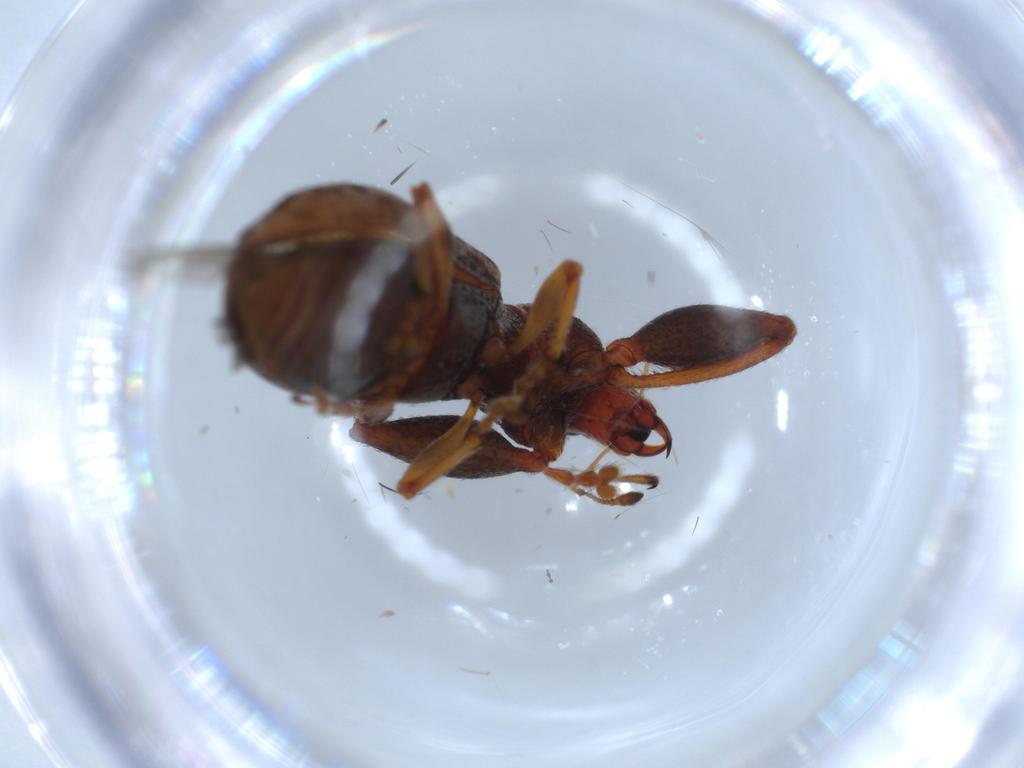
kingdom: Animalia
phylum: Arthropoda
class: Insecta
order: Coleoptera
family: Curculionidae
